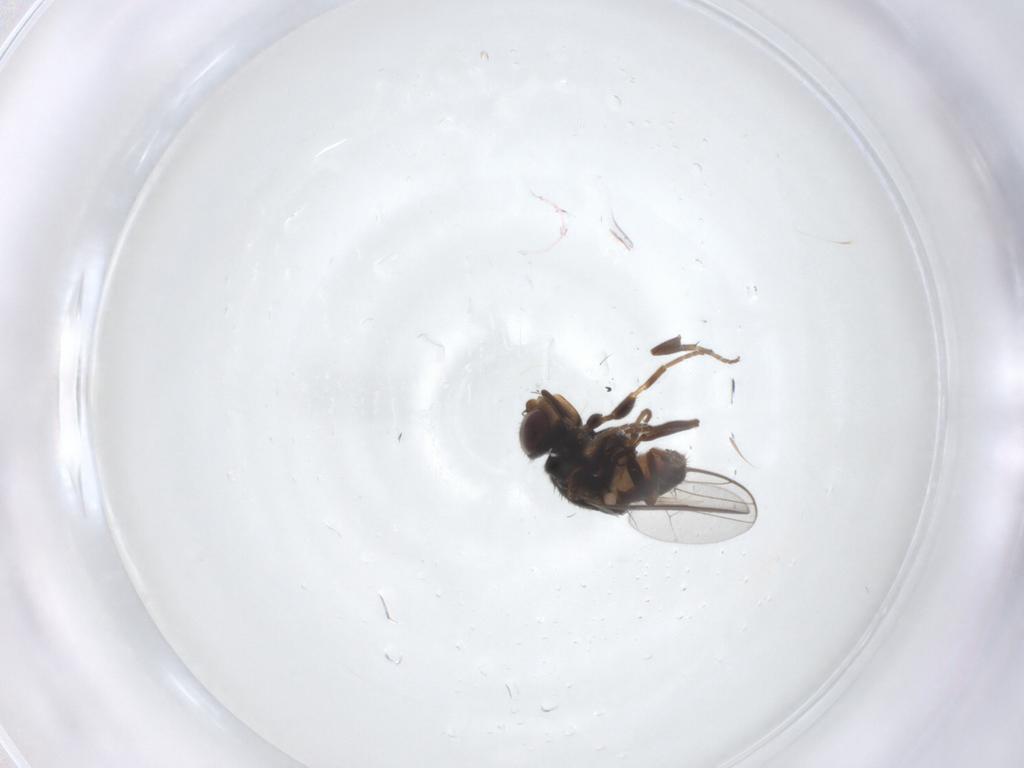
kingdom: Animalia
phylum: Arthropoda
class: Insecta
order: Diptera
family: Chloropidae
